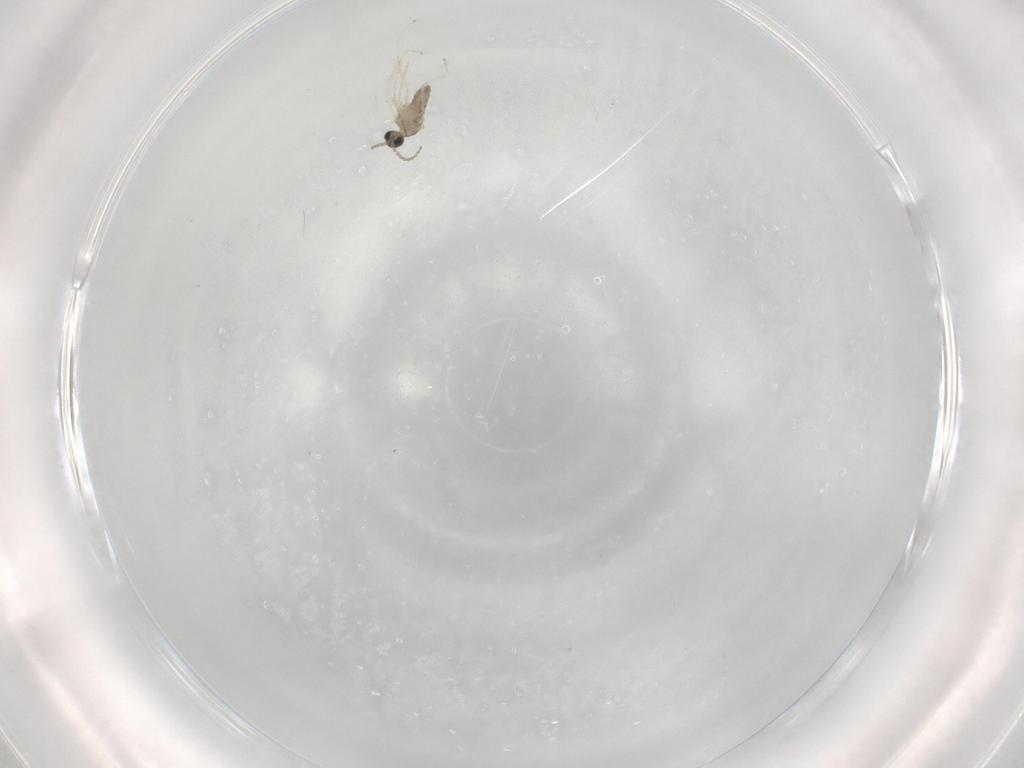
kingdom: Animalia
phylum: Arthropoda
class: Insecta
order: Diptera
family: Cecidomyiidae
